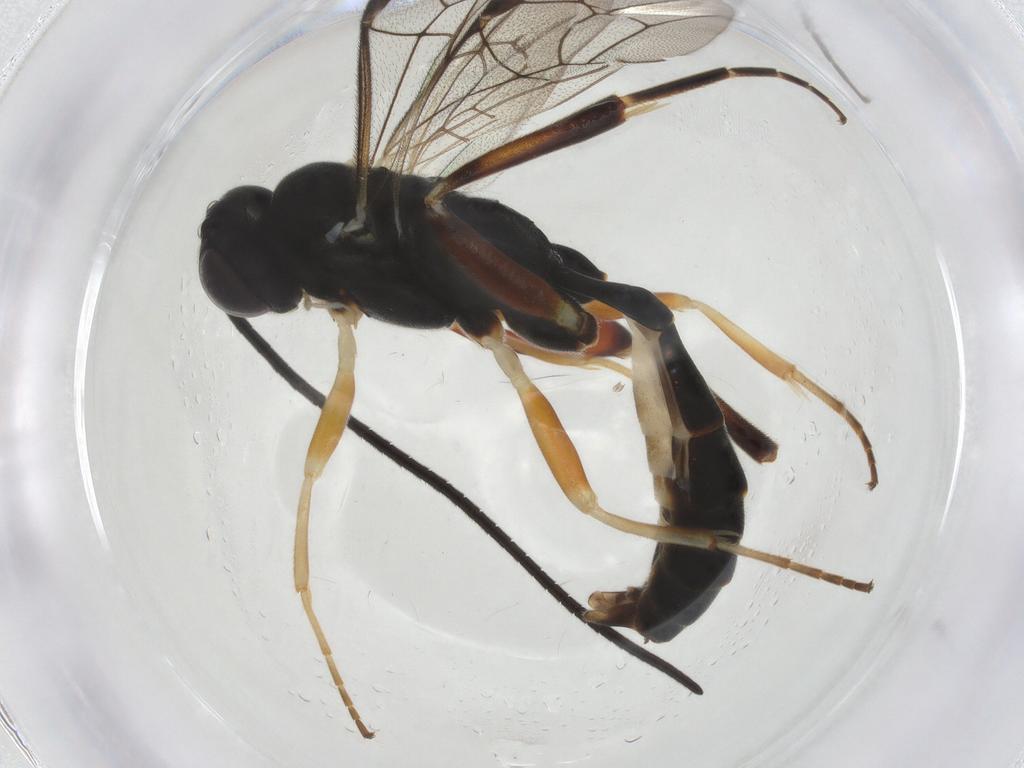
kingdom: Animalia
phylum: Arthropoda
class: Insecta
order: Hymenoptera
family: Ichneumonidae
